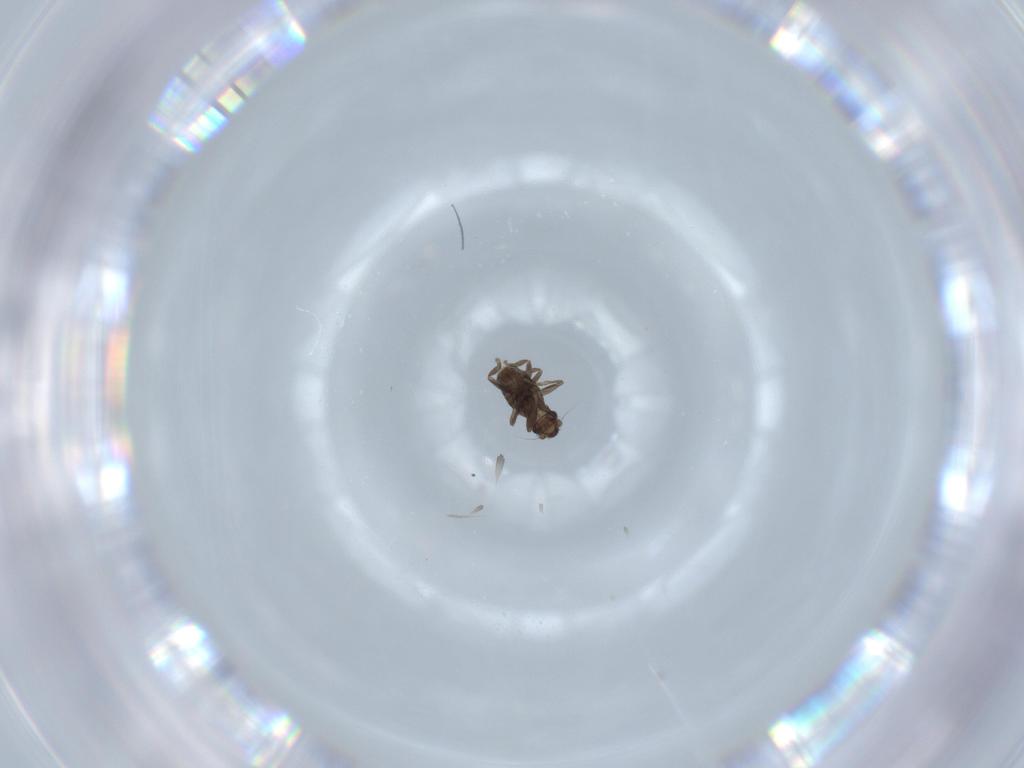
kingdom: Animalia
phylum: Arthropoda
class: Insecta
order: Diptera
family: Phoridae
